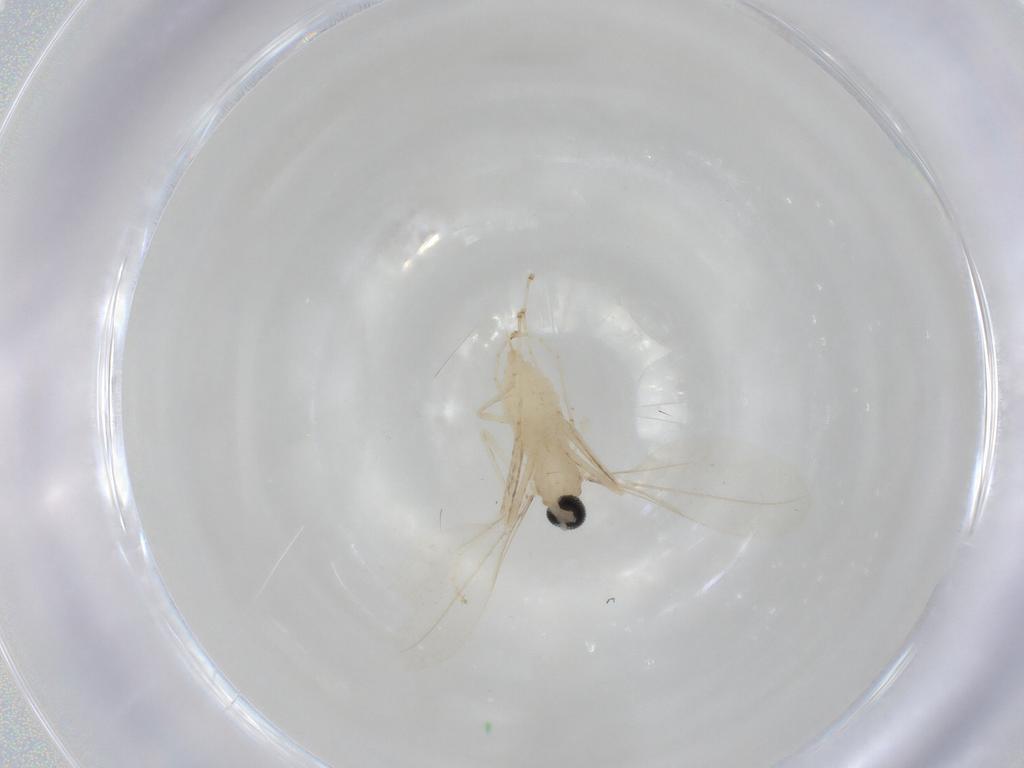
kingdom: Animalia
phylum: Arthropoda
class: Insecta
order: Diptera
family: Cecidomyiidae
